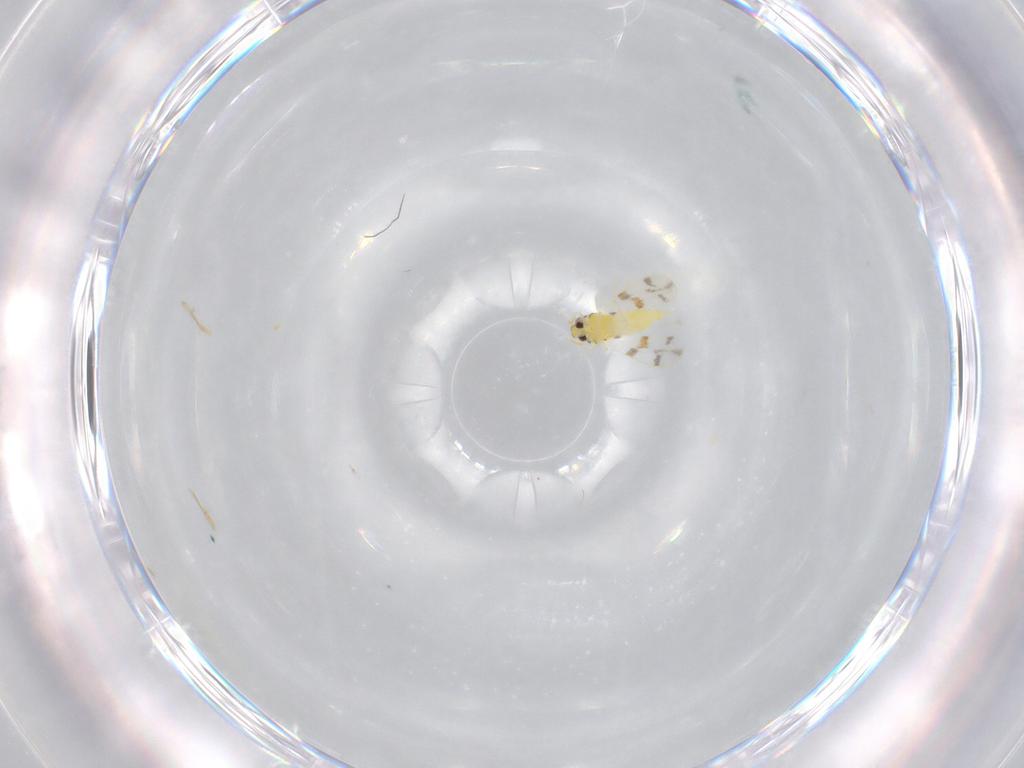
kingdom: Animalia
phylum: Arthropoda
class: Insecta
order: Hemiptera
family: Aleyrodidae
